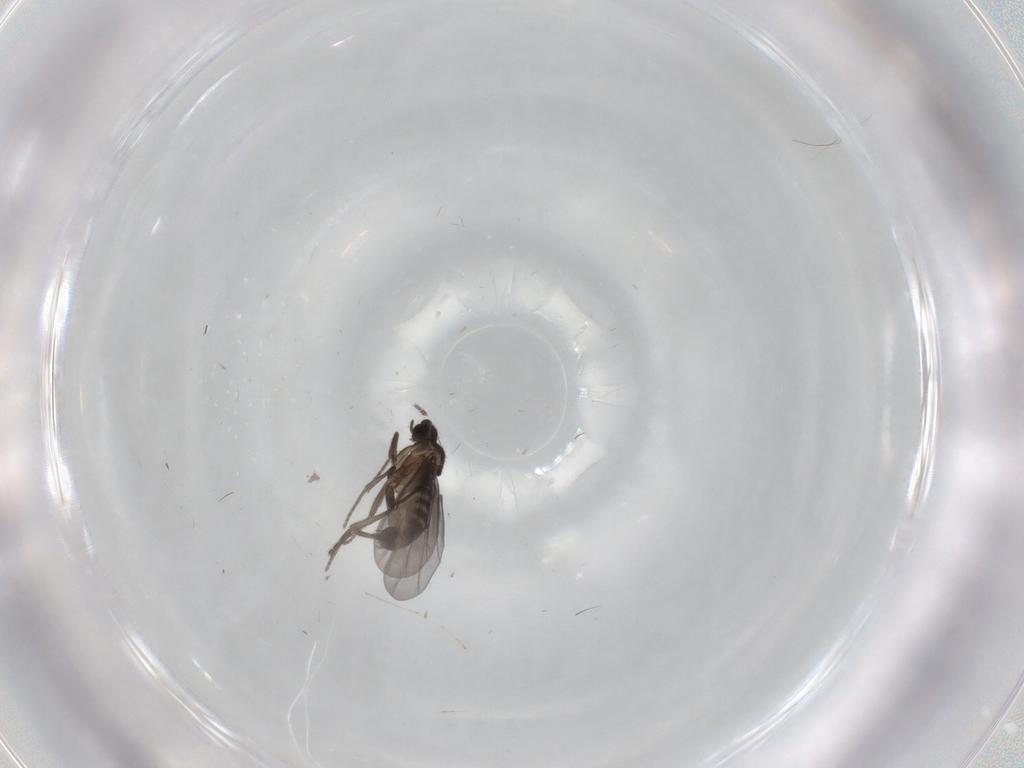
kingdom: Animalia
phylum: Arthropoda
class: Insecta
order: Diptera
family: Phoridae
